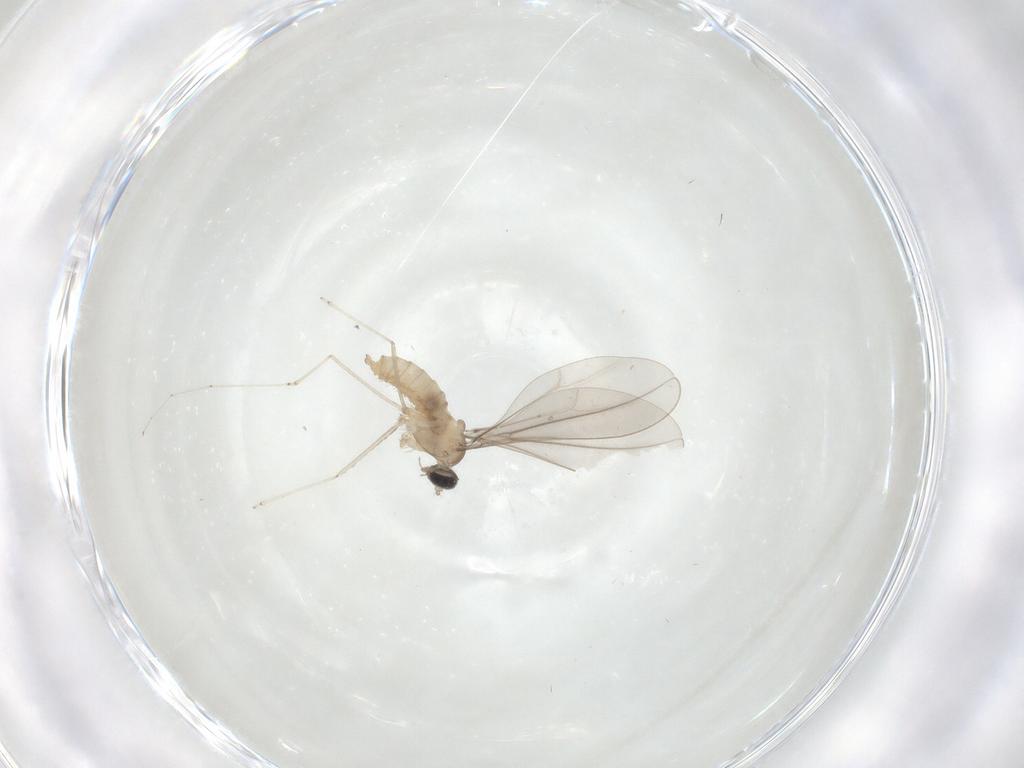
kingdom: Animalia
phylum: Arthropoda
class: Insecta
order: Diptera
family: Cecidomyiidae
